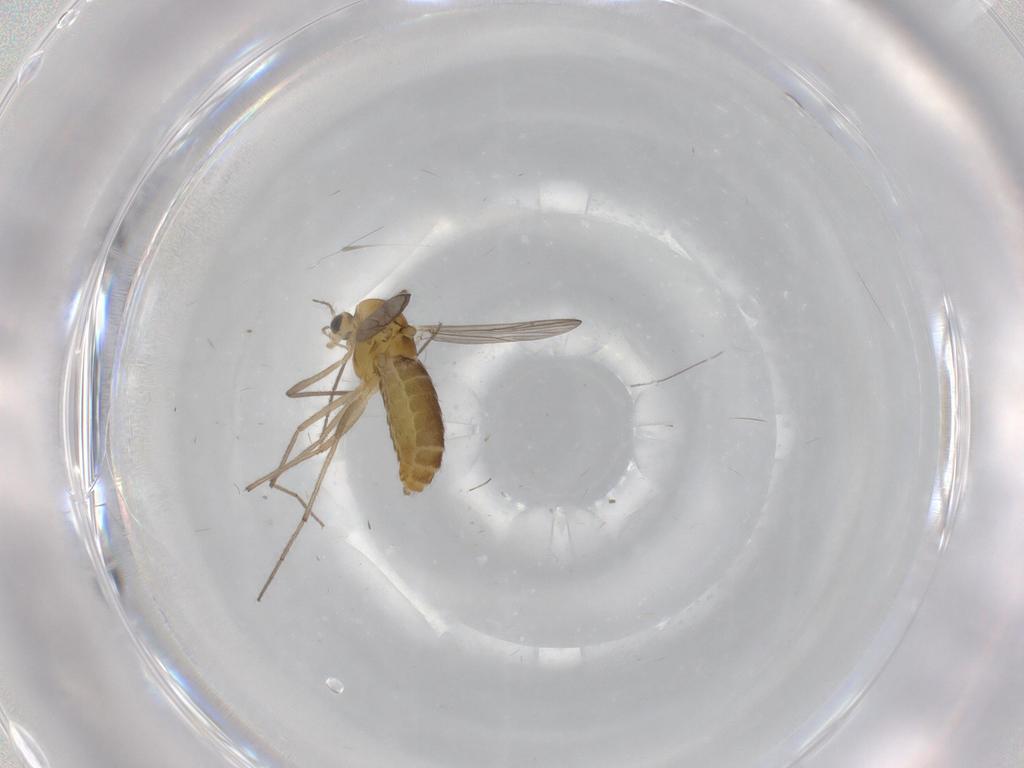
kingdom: Animalia
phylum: Arthropoda
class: Insecta
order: Diptera
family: Chironomidae
